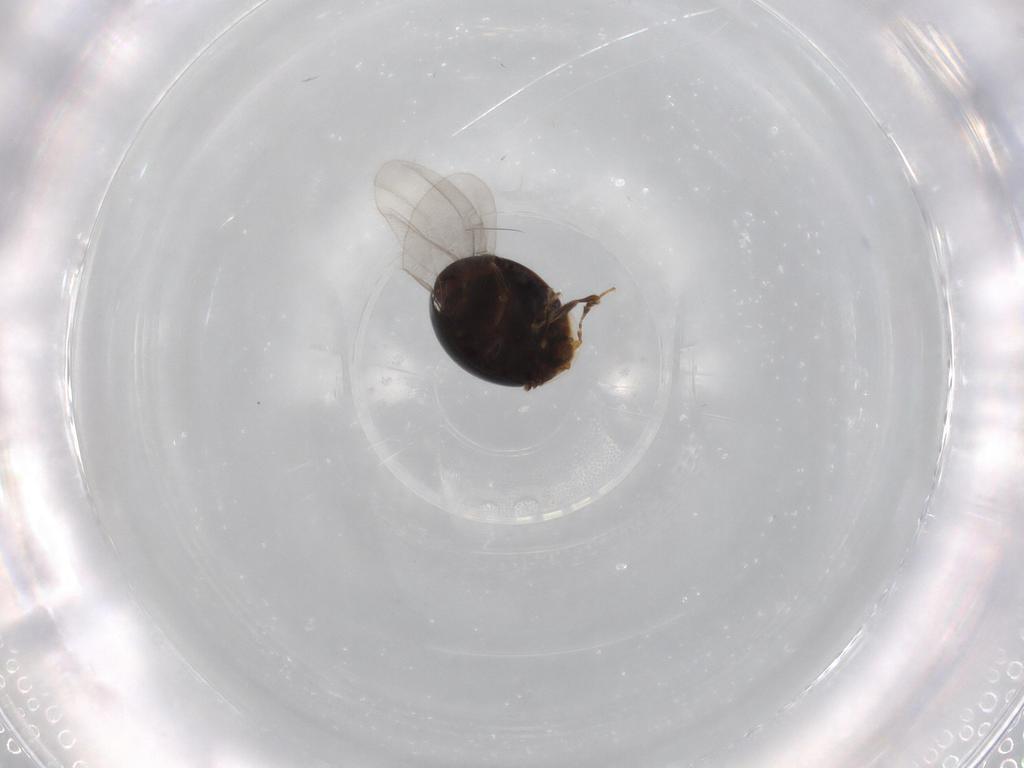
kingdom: Animalia
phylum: Arthropoda
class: Insecta
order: Coleoptera
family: Corylophidae
